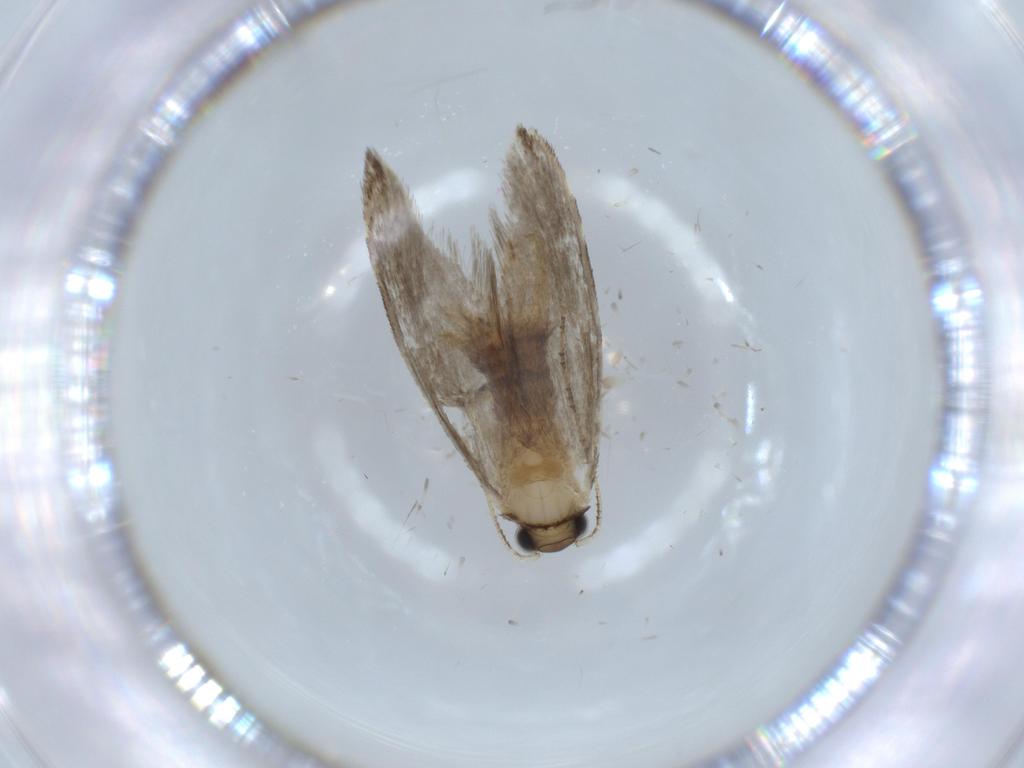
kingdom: Animalia
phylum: Arthropoda
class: Insecta
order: Lepidoptera
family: Tineidae
